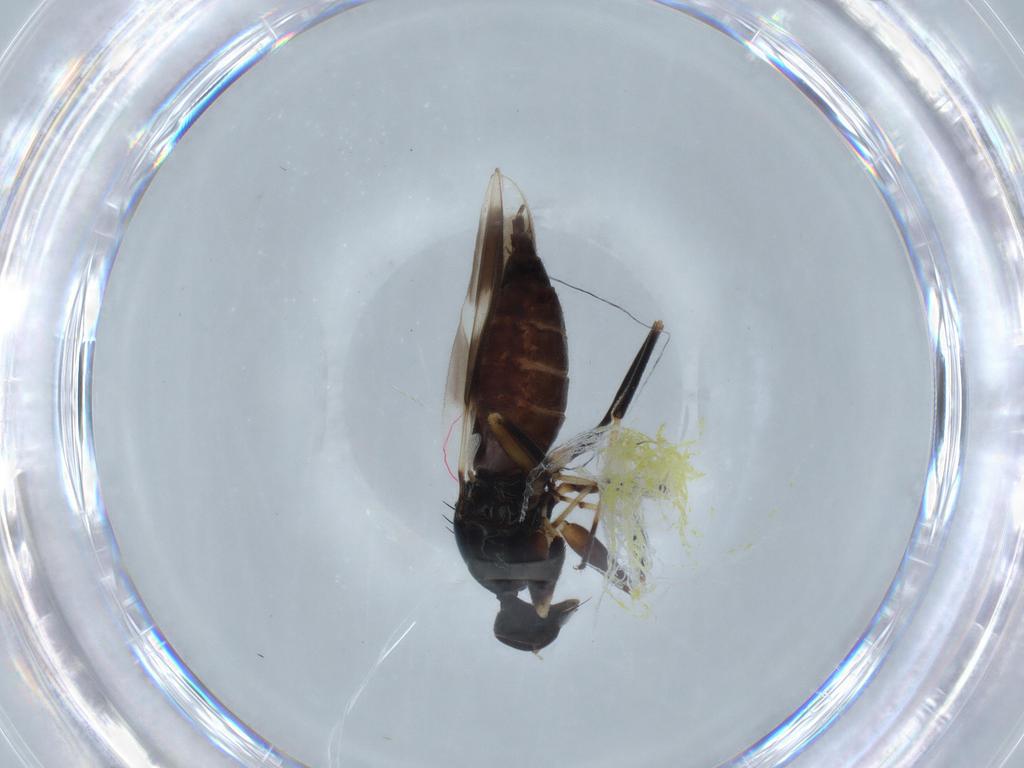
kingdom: Animalia
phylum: Arthropoda
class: Insecta
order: Diptera
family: Hybotidae
